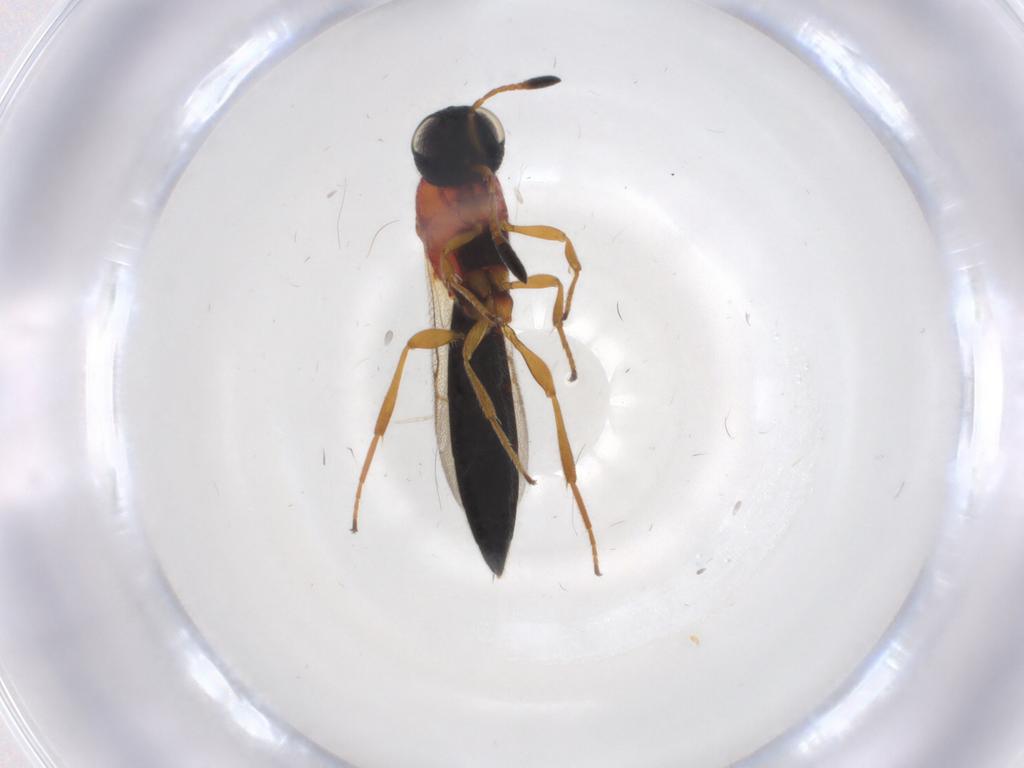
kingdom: Animalia
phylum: Arthropoda
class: Insecta
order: Hymenoptera
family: Scelionidae
